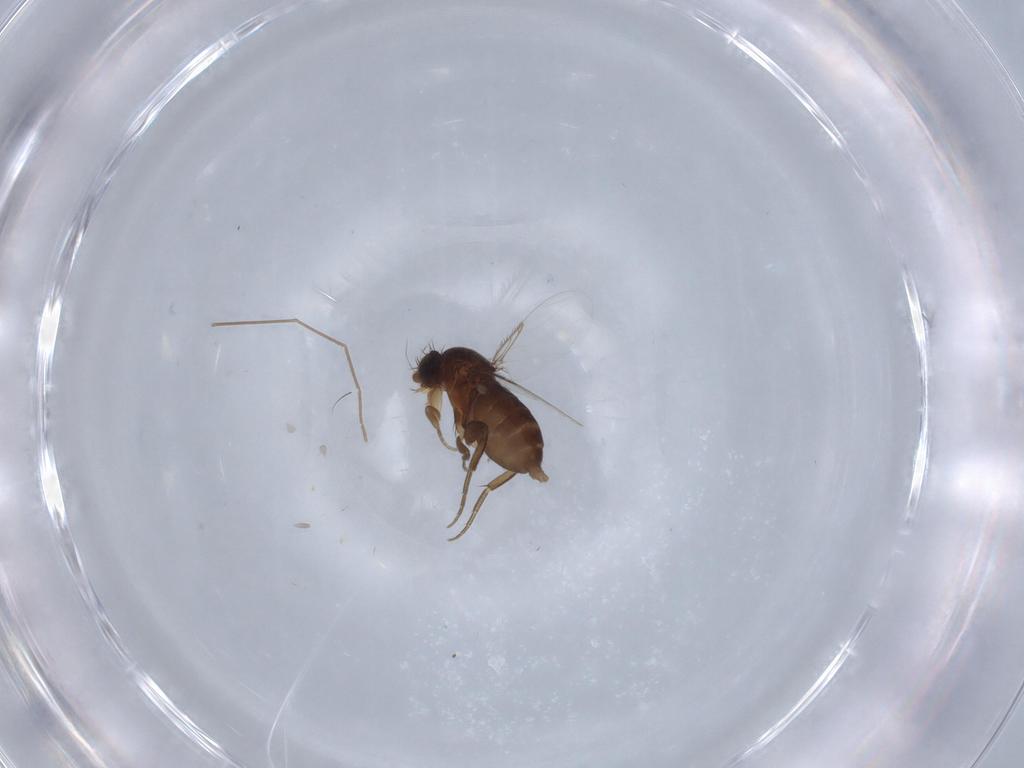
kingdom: Animalia
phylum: Arthropoda
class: Insecta
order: Diptera
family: Phoridae
